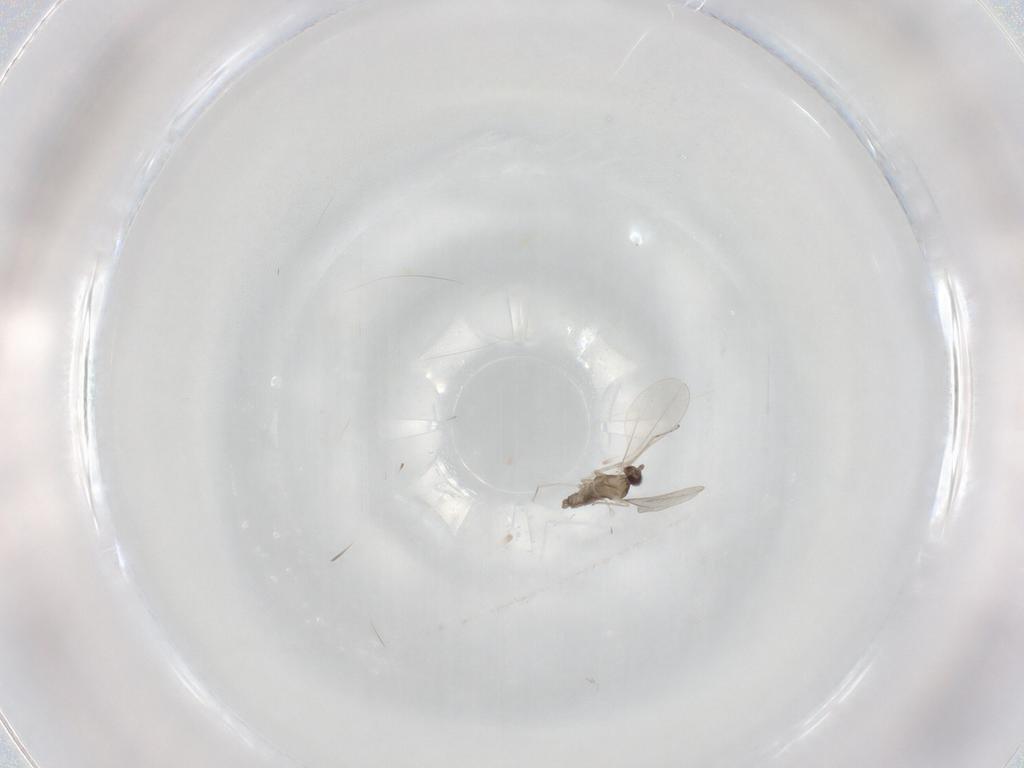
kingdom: Animalia
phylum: Arthropoda
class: Insecta
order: Diptera
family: Cecidomyiidae
